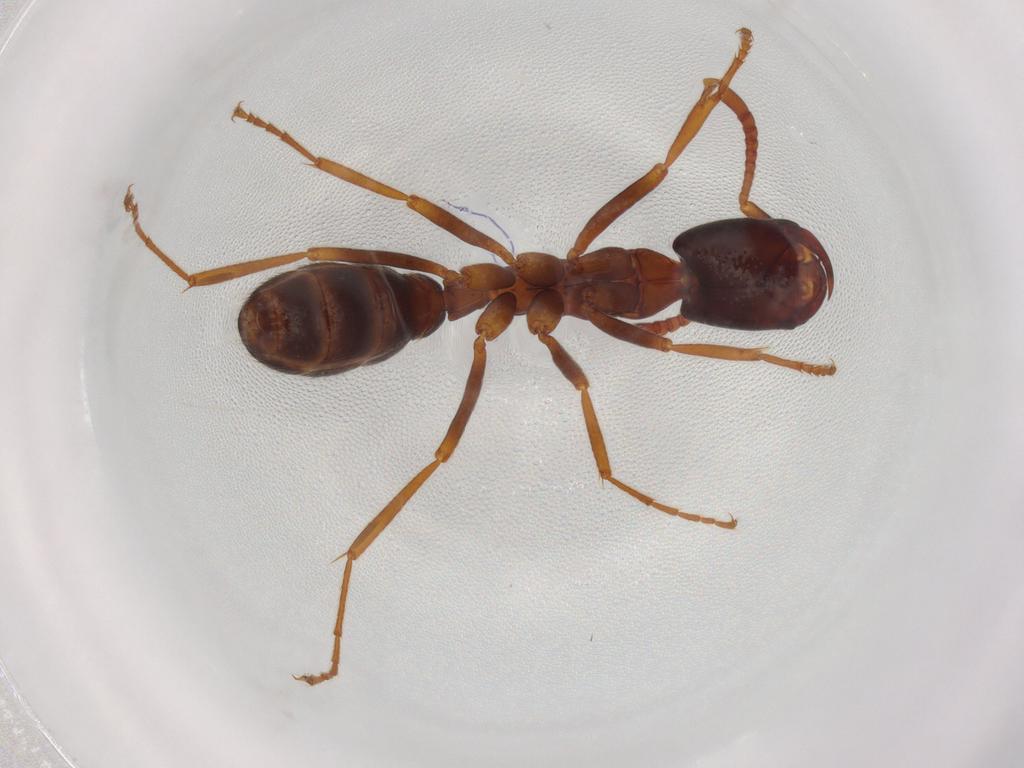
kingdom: Animalia
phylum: Arthropoda
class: Insecta
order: Hymenoptera
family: Formicidae
